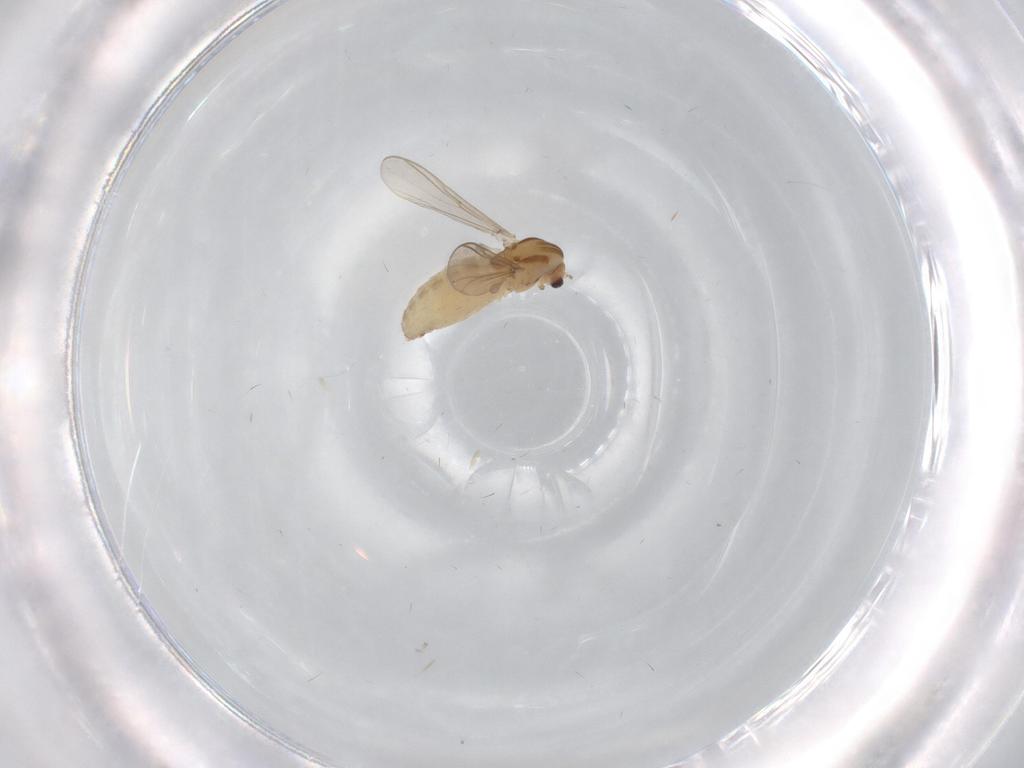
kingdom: Animalia
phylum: Arthropoda
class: Insecta
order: Diptera
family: Chironomidae
